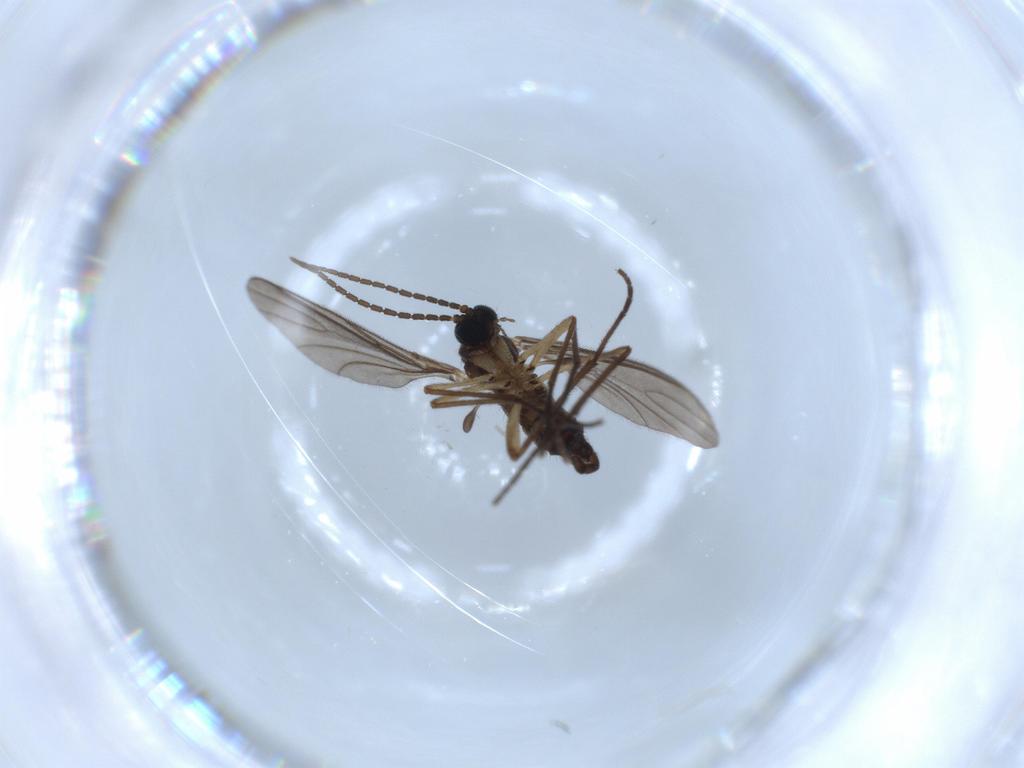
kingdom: Animalia
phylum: Arthropoda
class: Insecta
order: Diptera
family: Sciaridae
